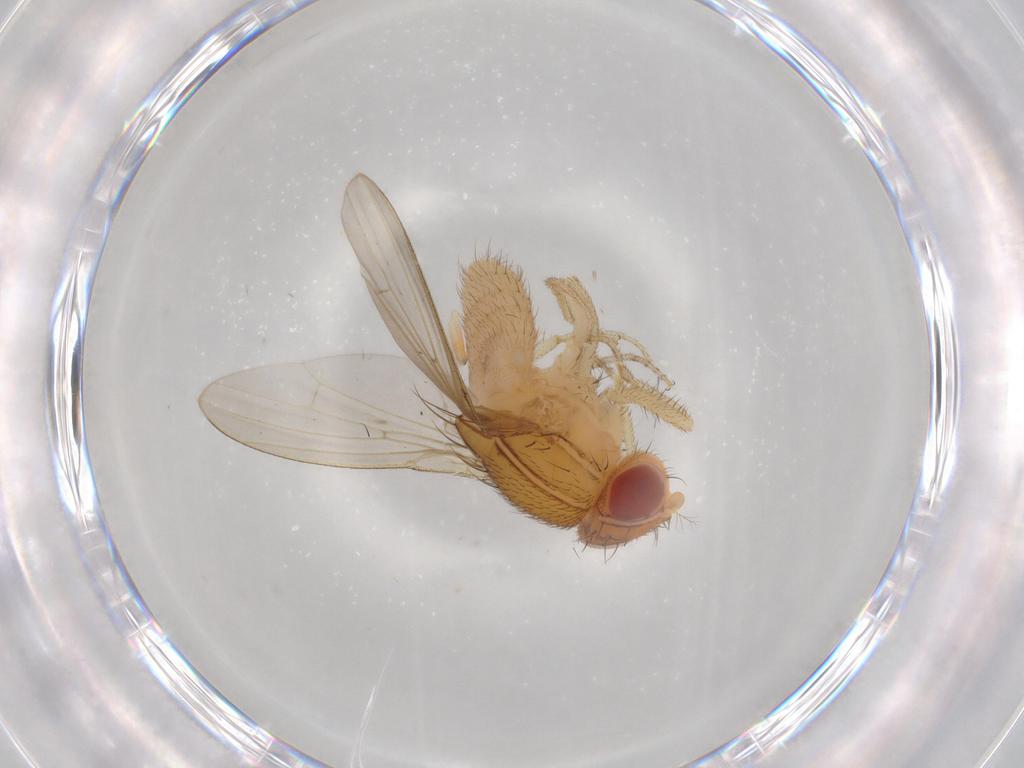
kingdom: Animalia
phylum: Arthropoda
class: Insecta
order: Diptera
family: Drosophilidae
